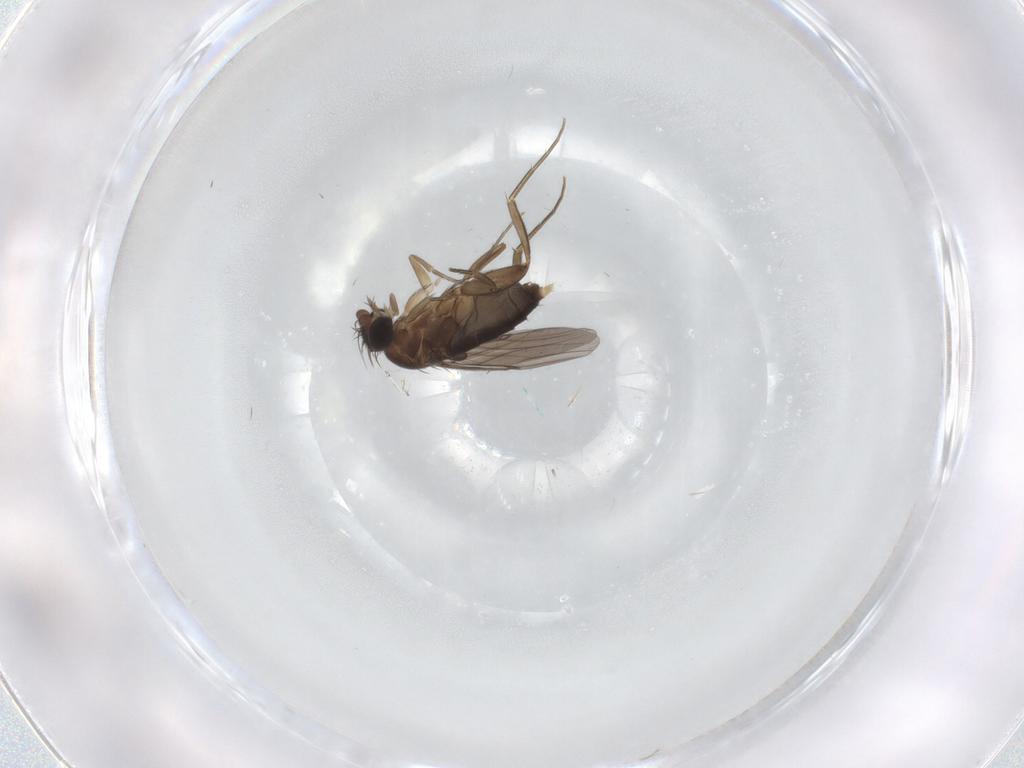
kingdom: Animalia
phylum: Arthropoda
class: Insecta
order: Diptera
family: Phoridae
